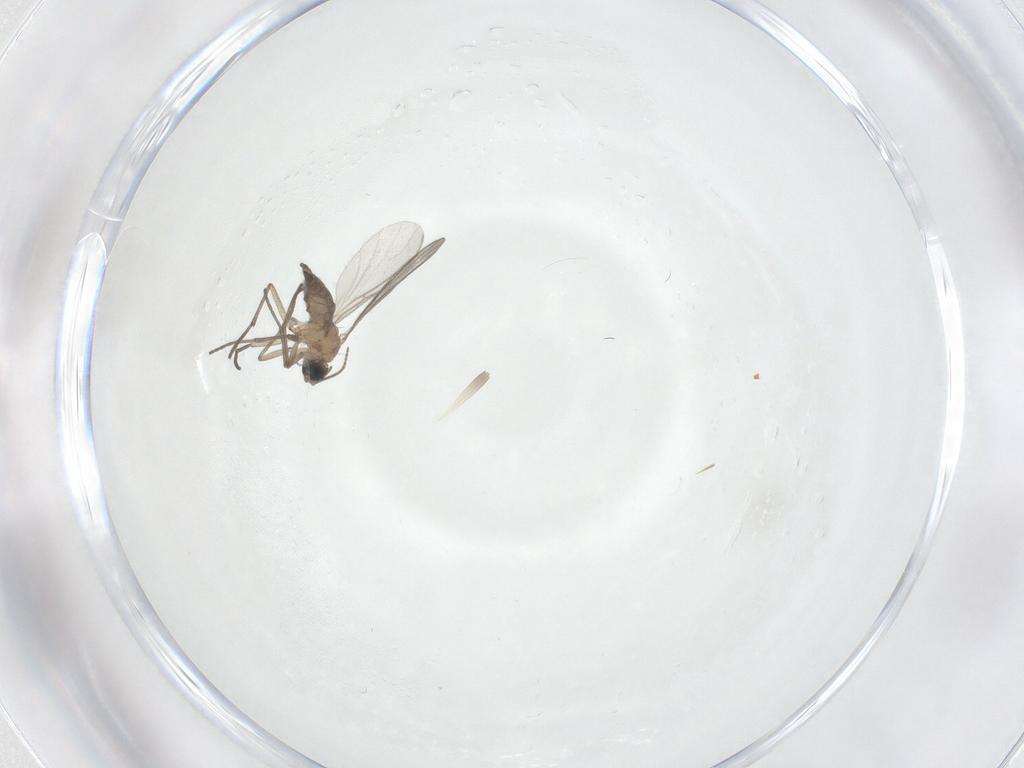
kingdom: Animalia
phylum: Arthropoda
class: Insecta
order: Diptera
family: Sciaridae
